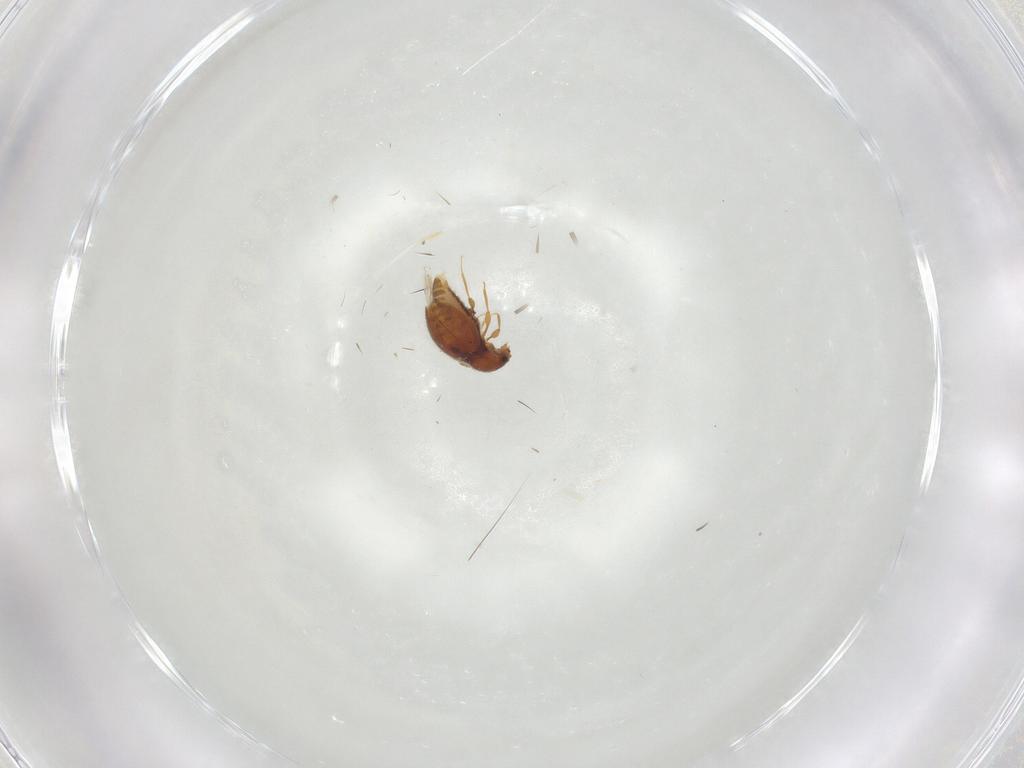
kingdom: Animalia
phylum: Arthropoda
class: Insecta
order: Coleoptera
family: Staphylinidae
